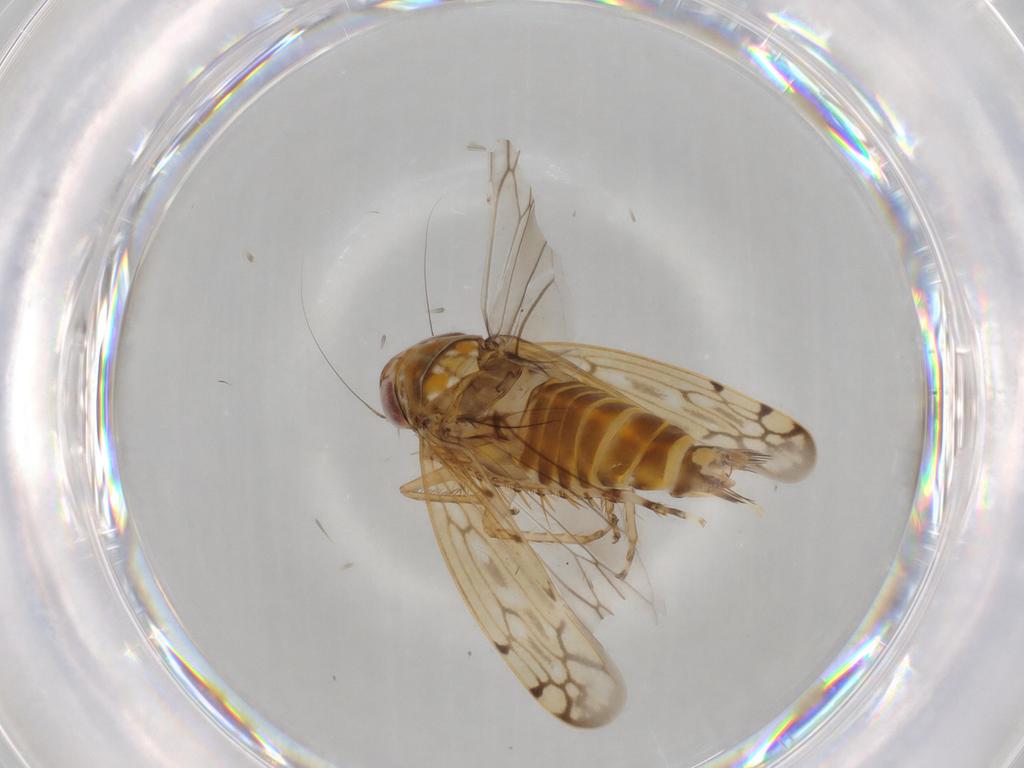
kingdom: Animalia
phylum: Arthropoda
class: Insecta
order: Hemiptera
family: Cicadellidae
